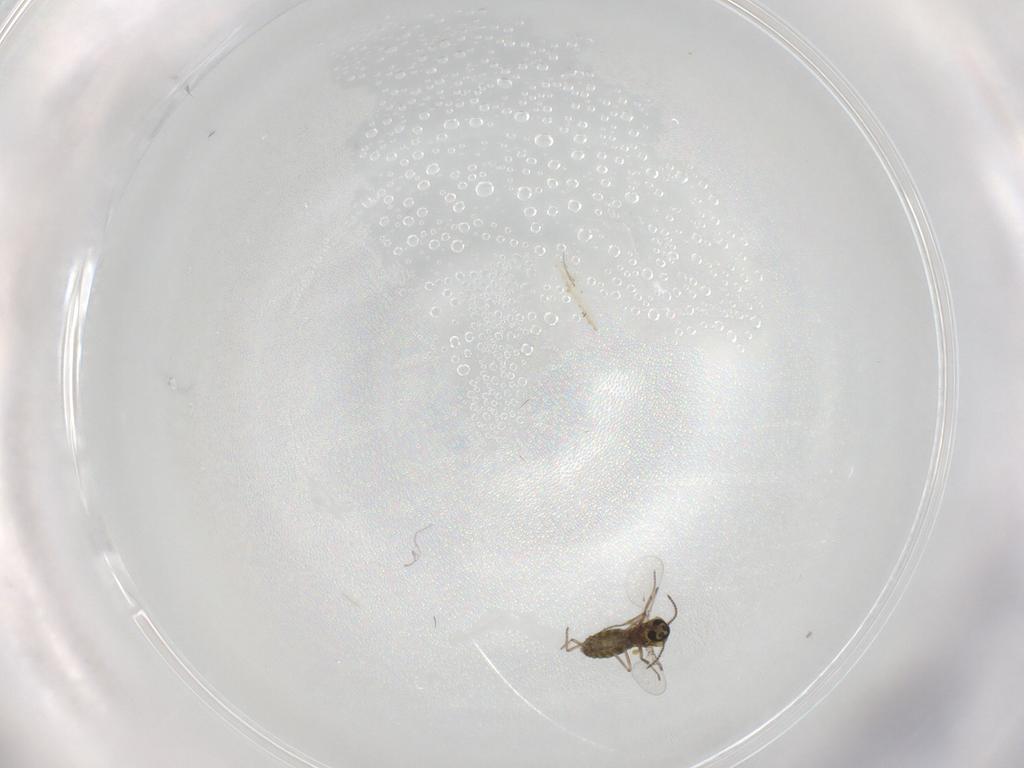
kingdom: Animalia
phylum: Arthropoda
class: Insecta
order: Diptera
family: Ceratopogonidae
